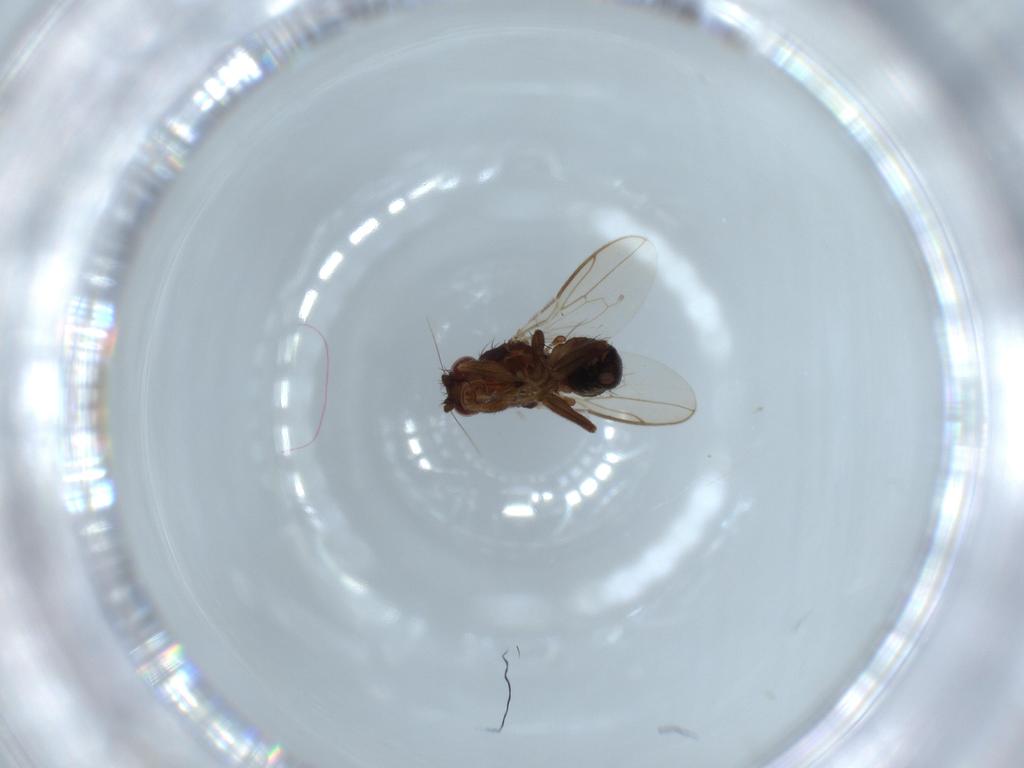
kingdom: Animalia
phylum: Arthropoda
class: Insecta
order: Diptera
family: Sphaeroceridae
